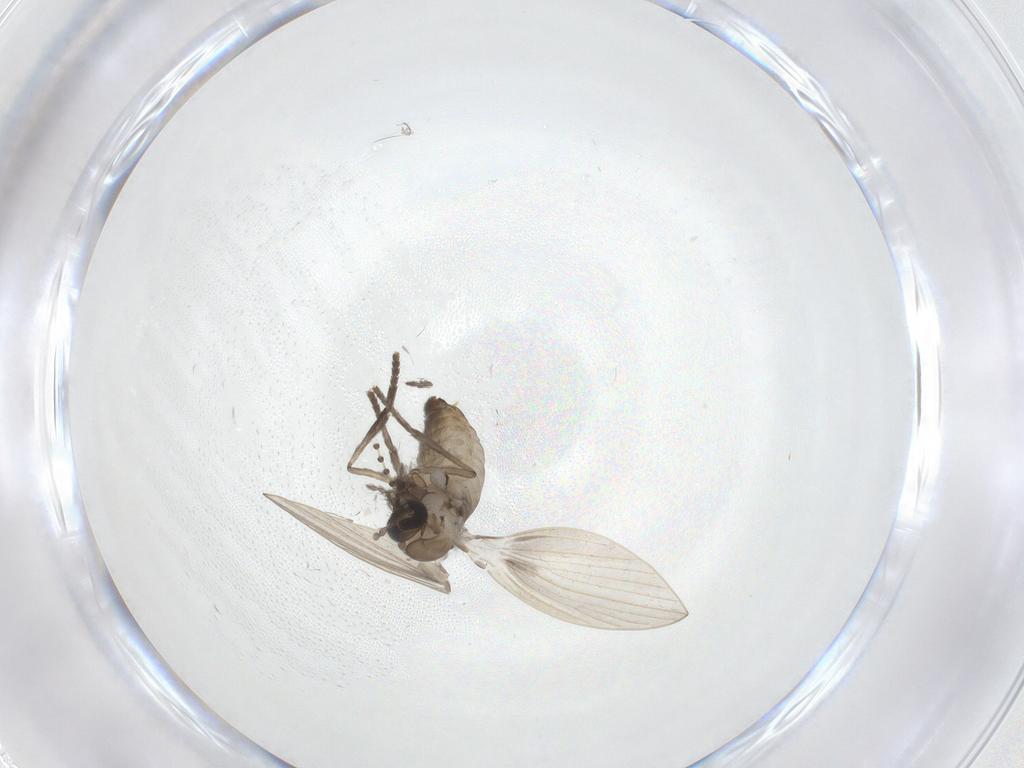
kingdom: Animalia
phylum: Arthropoda
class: Insecta
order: Diptera
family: Psychodidae
